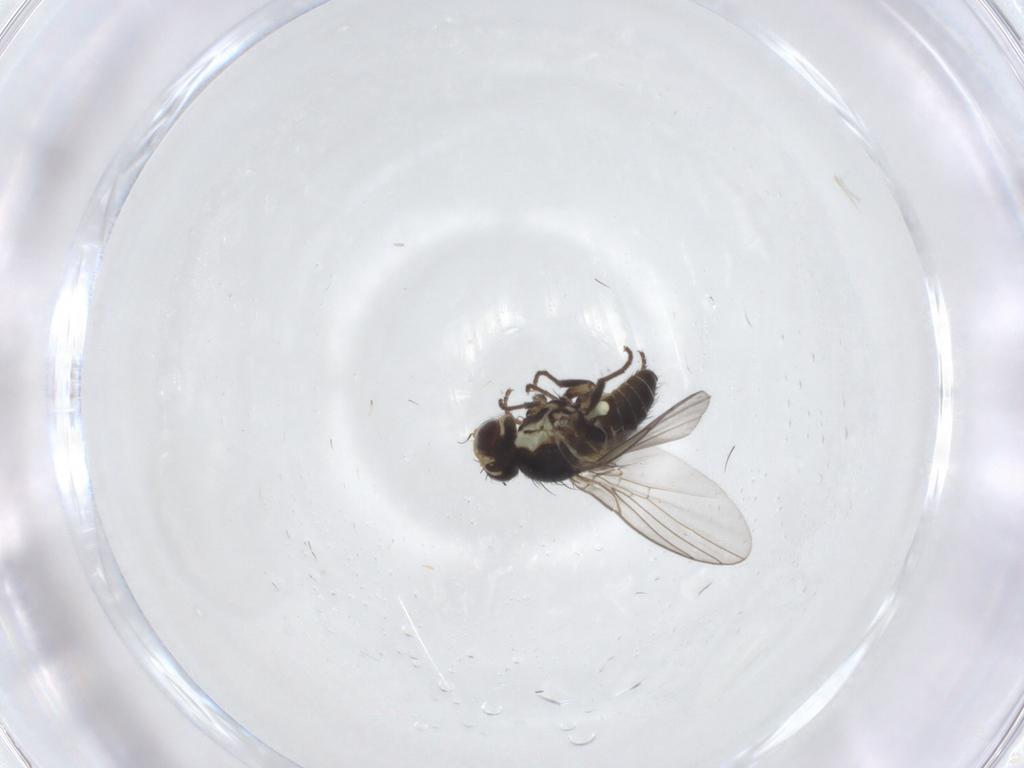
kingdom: Animalia
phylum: Arthropoda
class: Insecta
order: Diptera
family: Agromyzidae
